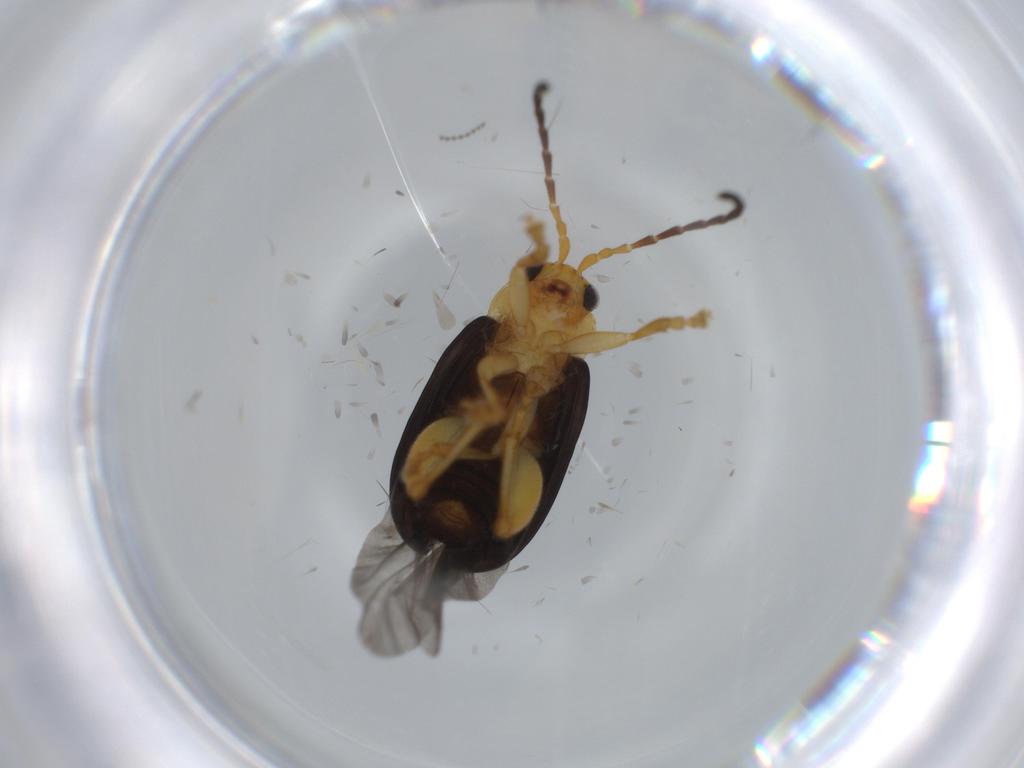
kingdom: Animalia
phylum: Arthropoda
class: Insecta
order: Coleoptera
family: Chrysomelidae
